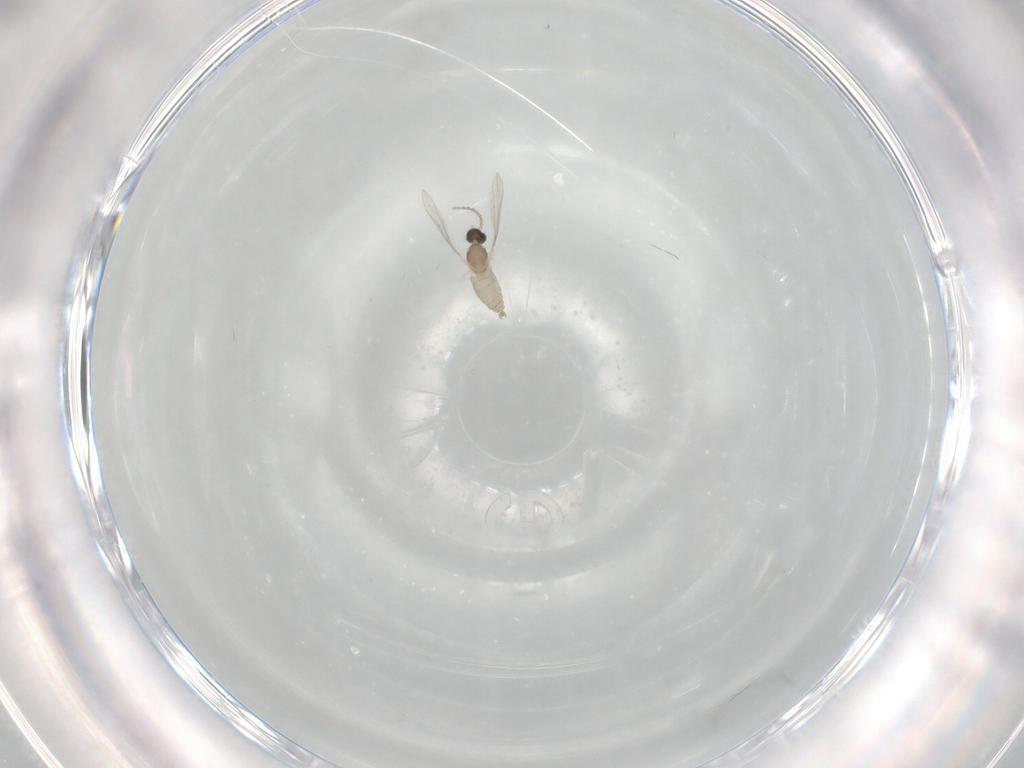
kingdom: Animalia
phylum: Arthropoda
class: Insecta
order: Diptera
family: Cecidomyiidae
